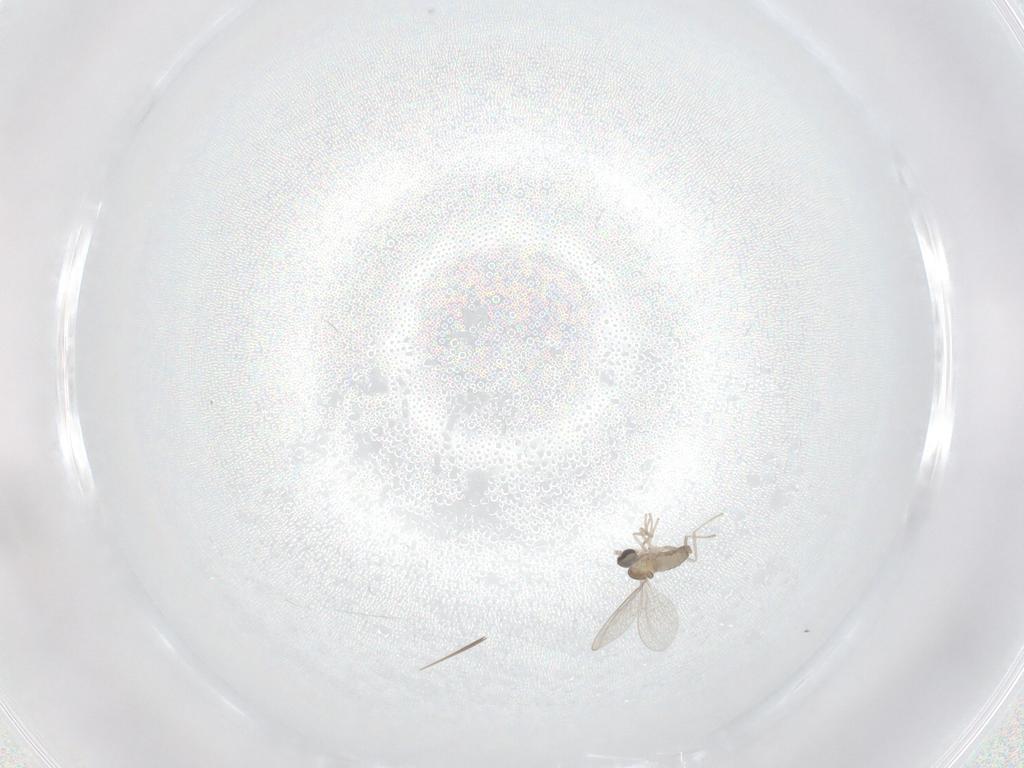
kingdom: Animalia
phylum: Arthropoda
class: Insecta
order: Diptera
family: Cecidomyiidae
